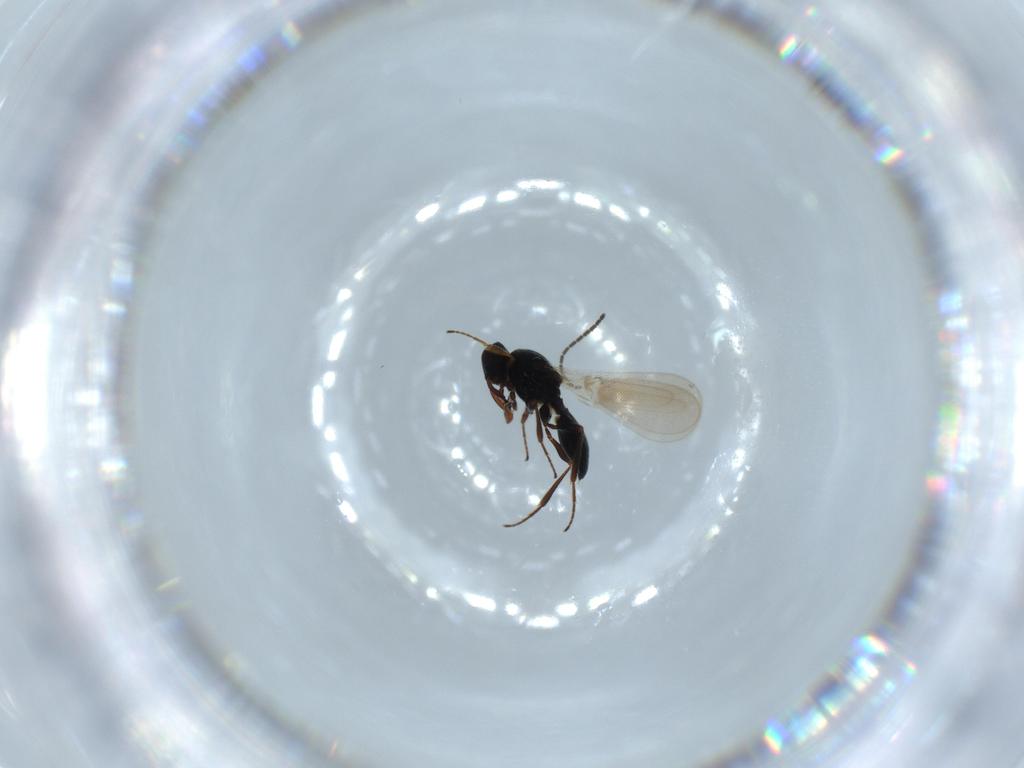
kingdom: Animalia
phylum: Arthropoda
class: Insecta
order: Hymenoptera
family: Platygastridae
